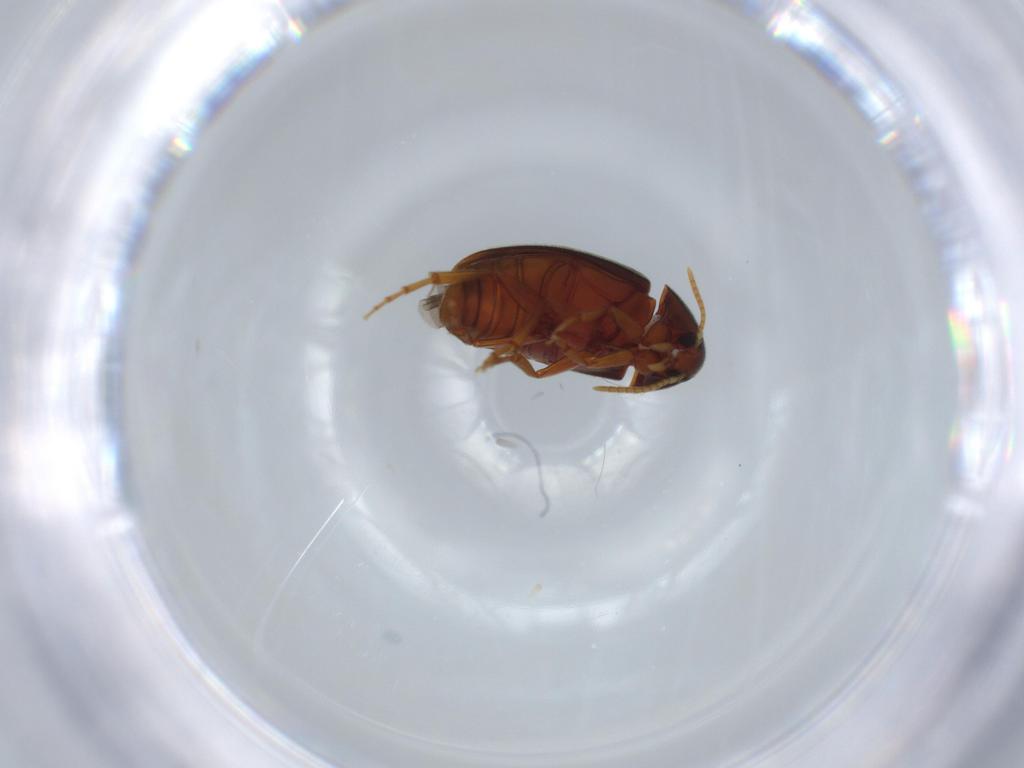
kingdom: Animalia
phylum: Arthropoda
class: Insecta
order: Coleoptera
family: Scraptiidae
